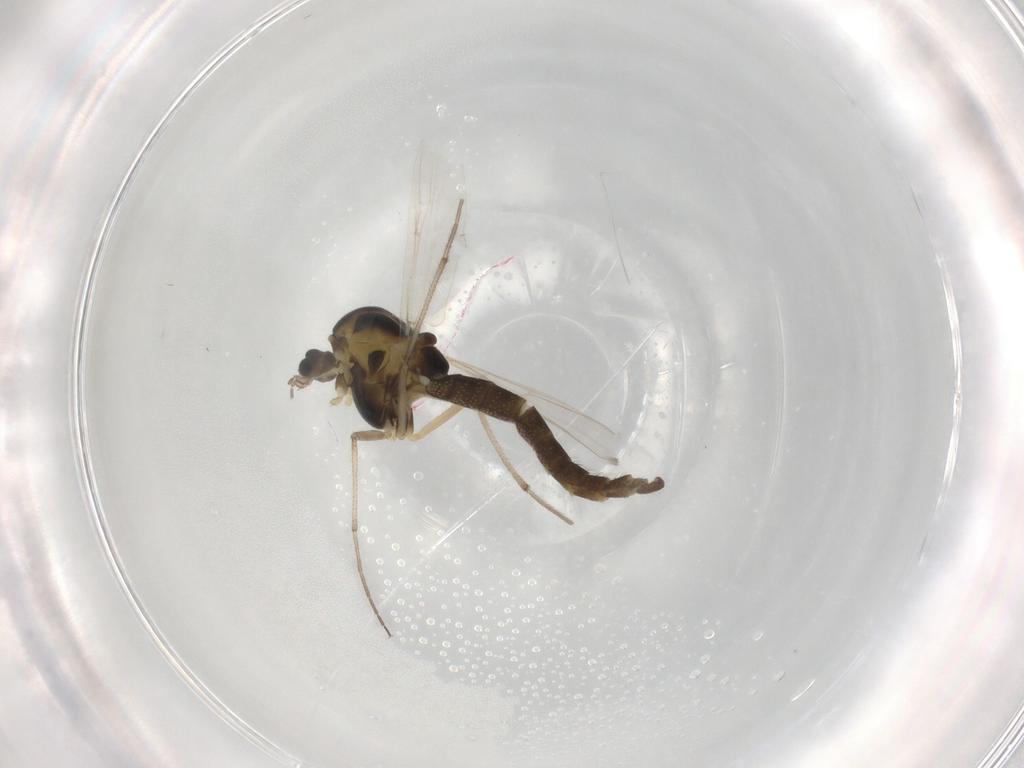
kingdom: Animalia
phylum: Arthropoda
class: Insecta
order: Diptera
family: Chironomidae
